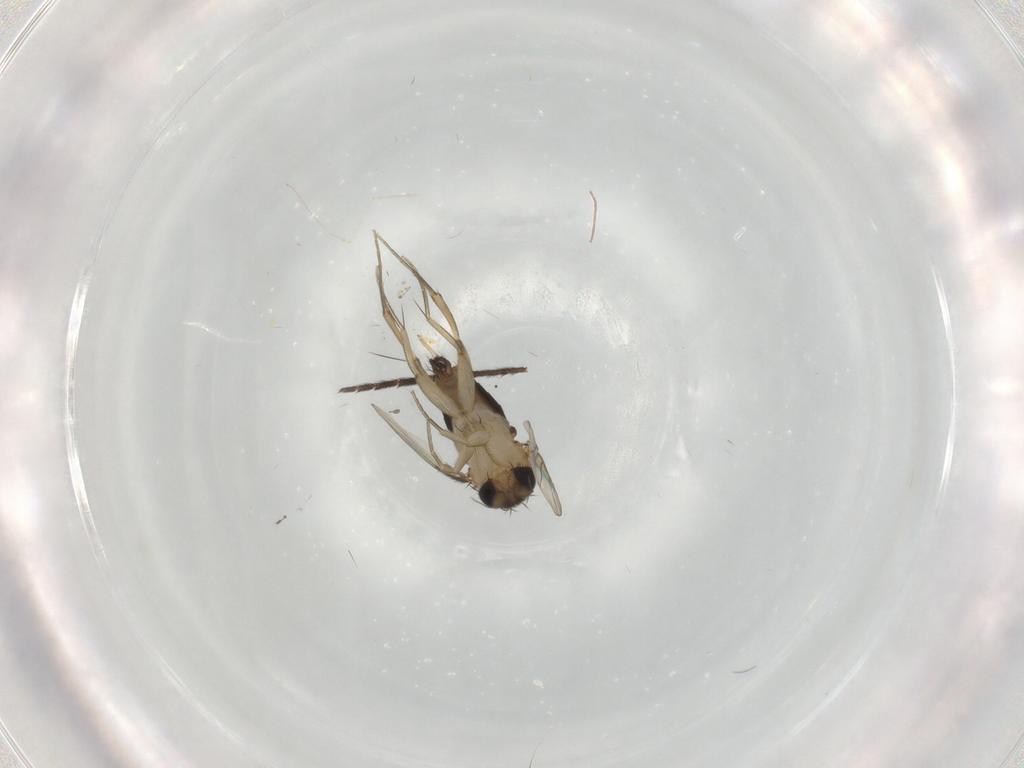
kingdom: Animalia
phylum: Arthropoda
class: Insecta
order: Diptera
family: Phoridae
